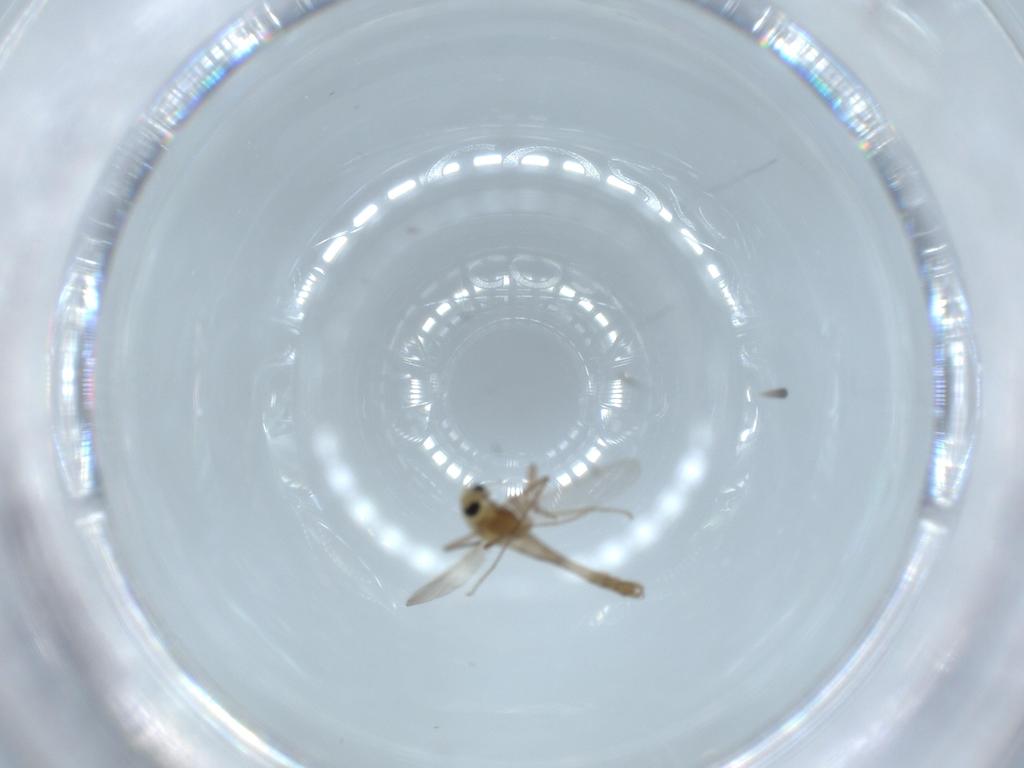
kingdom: Animalia
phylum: Arthropoda
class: Insecta
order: Diptera
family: Chironomidae
